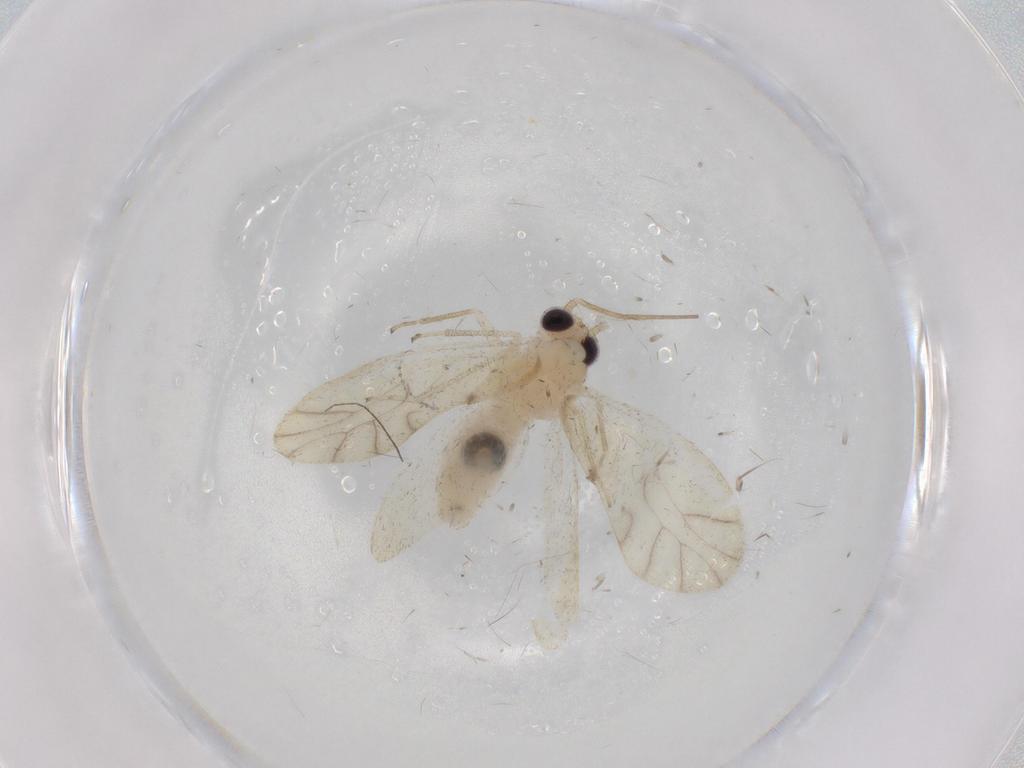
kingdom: Animalia
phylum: Arthropoda
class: Insecta
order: Psocodea
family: Caeciliusidae
